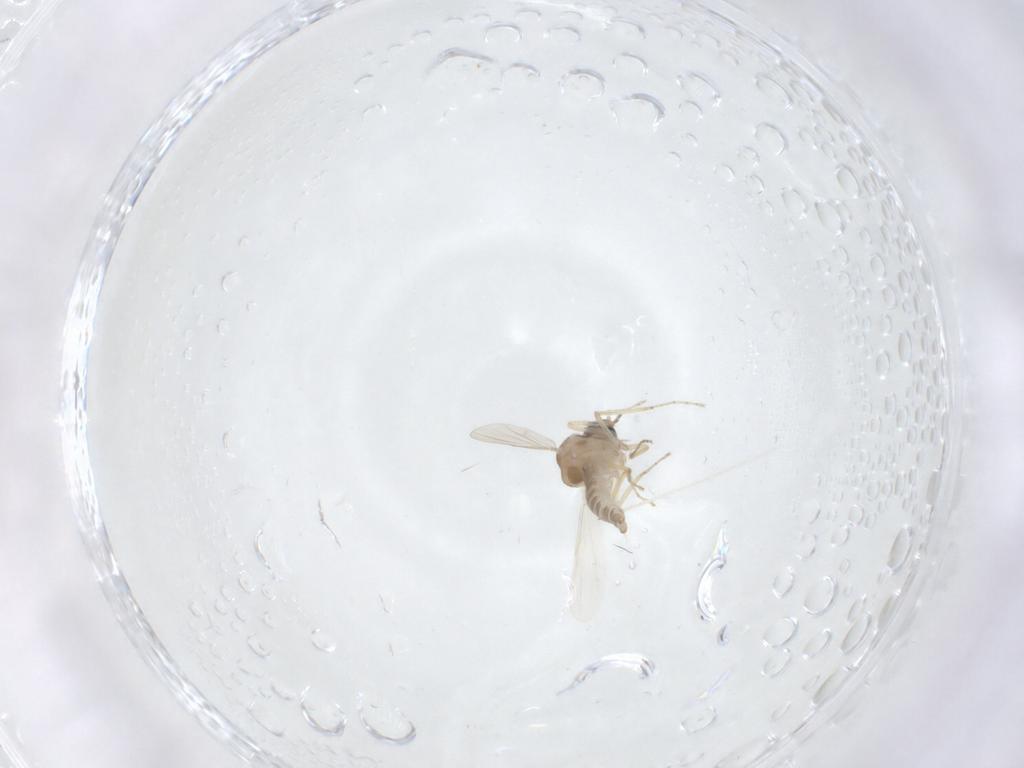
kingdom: Animalia
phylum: Arthropoda
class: Insecta
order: Diptera
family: Ceratopogonidae
